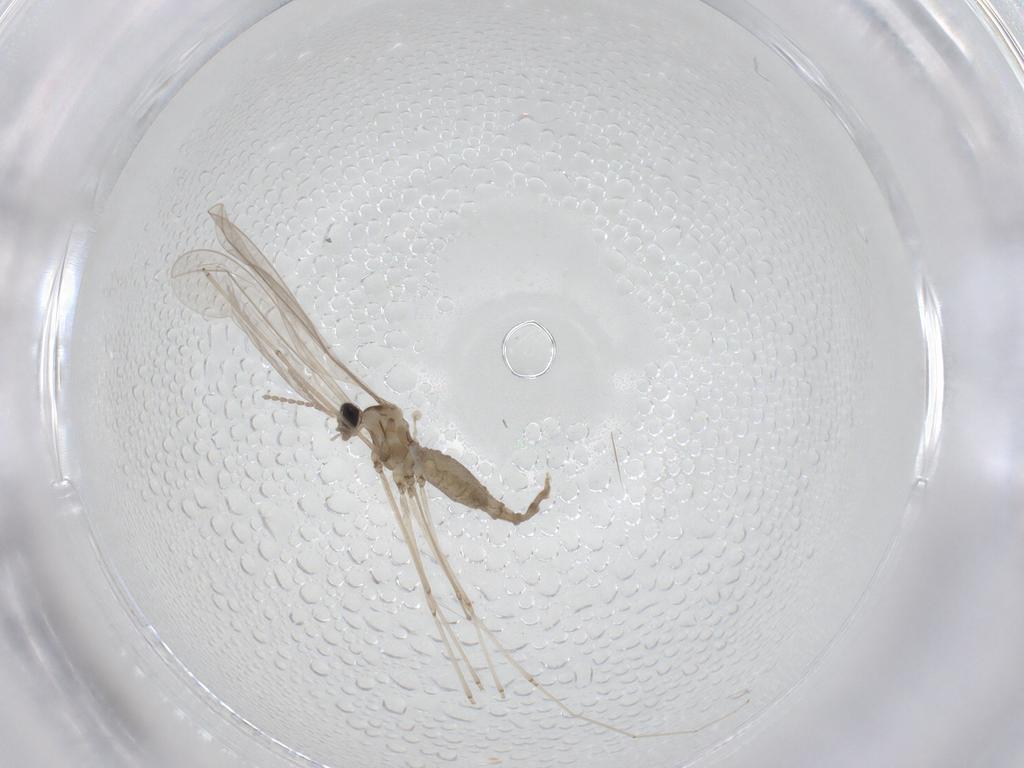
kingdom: Animalia
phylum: Arthropoda
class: Insecta
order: Diptera
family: Cecidomyiidae
